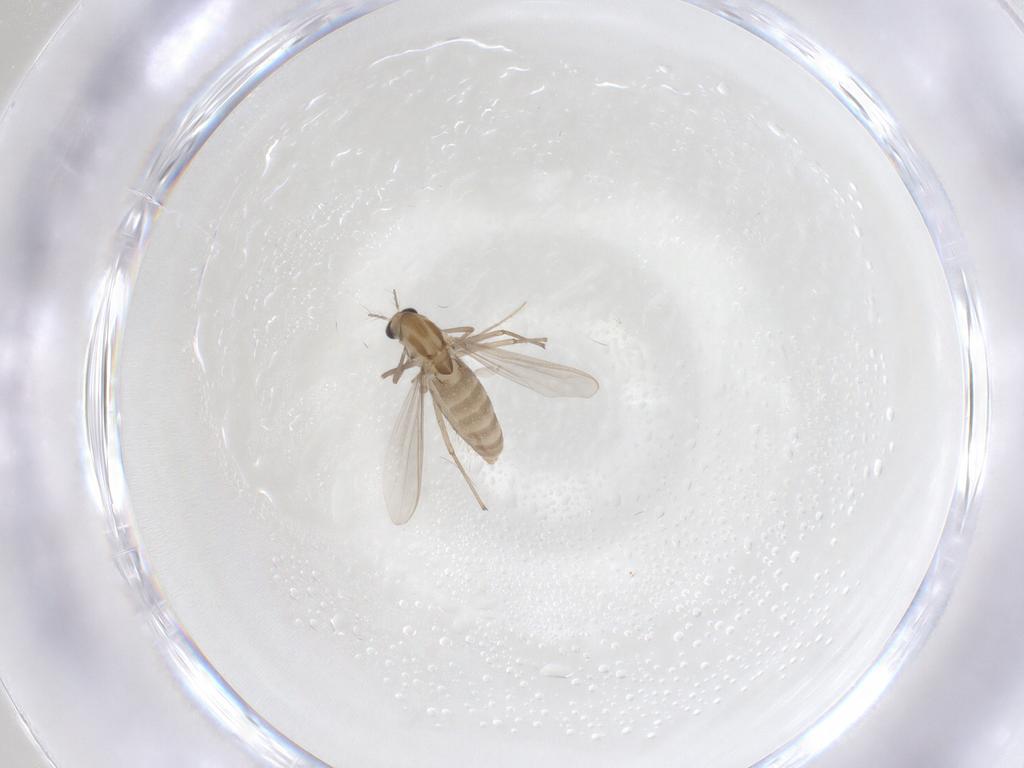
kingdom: Animalia
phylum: Arthropoda
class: Insecta
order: Diptera
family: Chironomidae
